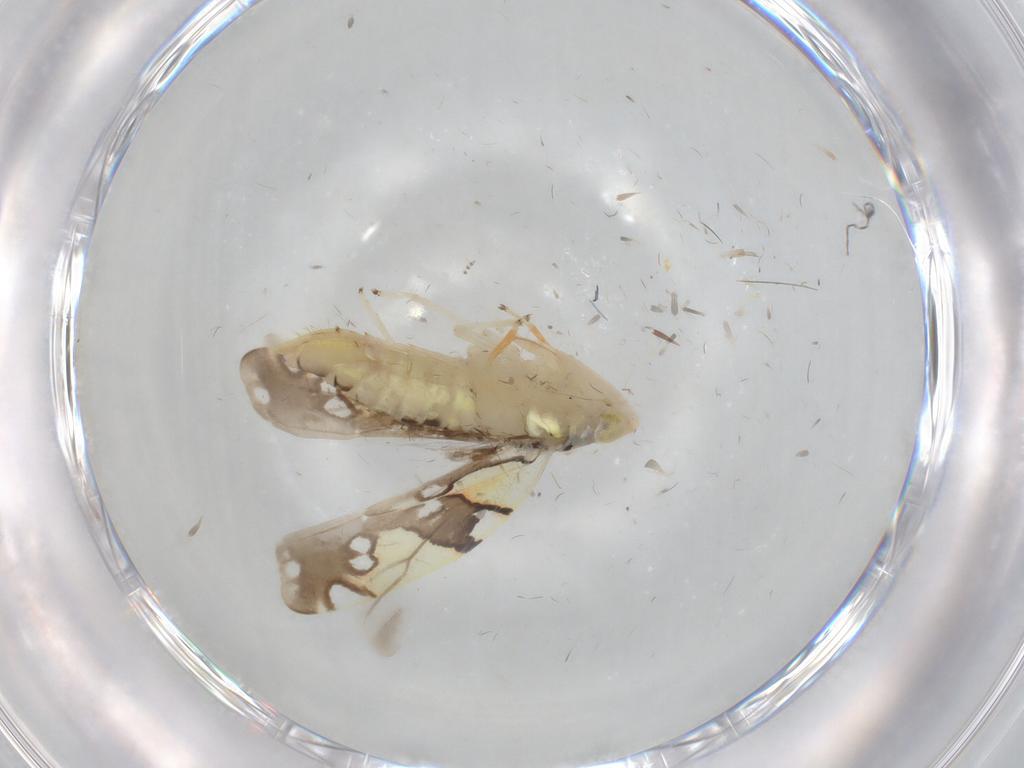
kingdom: Animalia
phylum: Arthropoda
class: Insecta
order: Hemiptera
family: Cicadellidae
